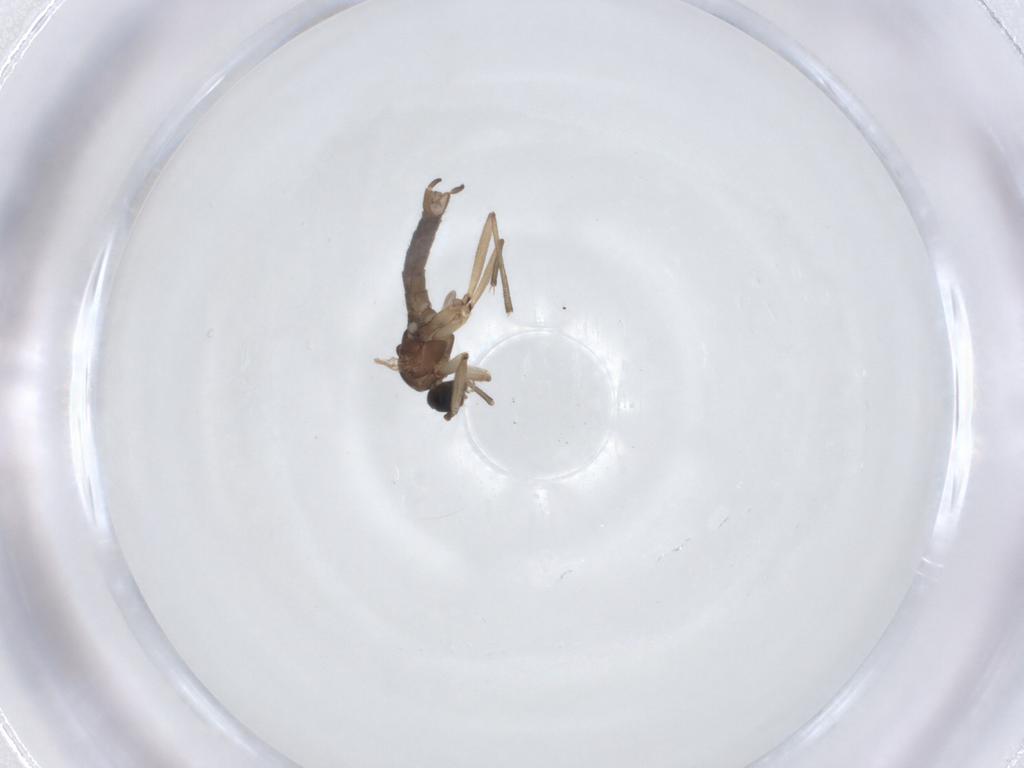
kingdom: Animalia
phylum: Arthropoda
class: Insecta
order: Diptera
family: Sciaridae
